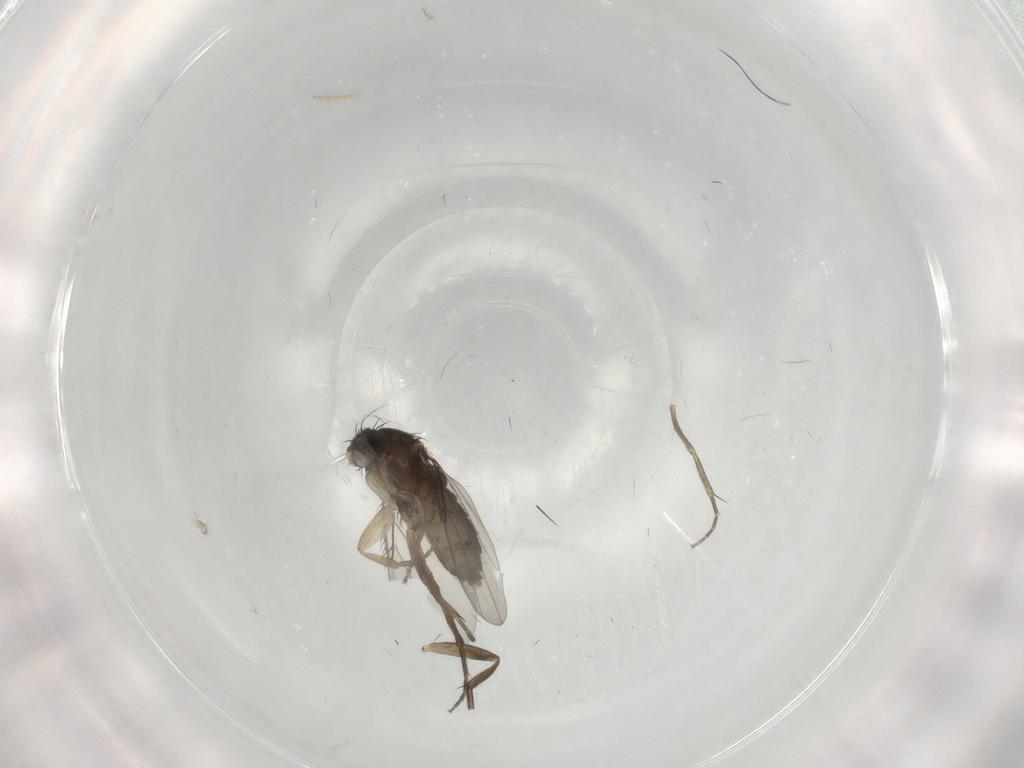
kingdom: Animalia
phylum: Arthropoda
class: Insecta
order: Diptera
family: Phoridae
